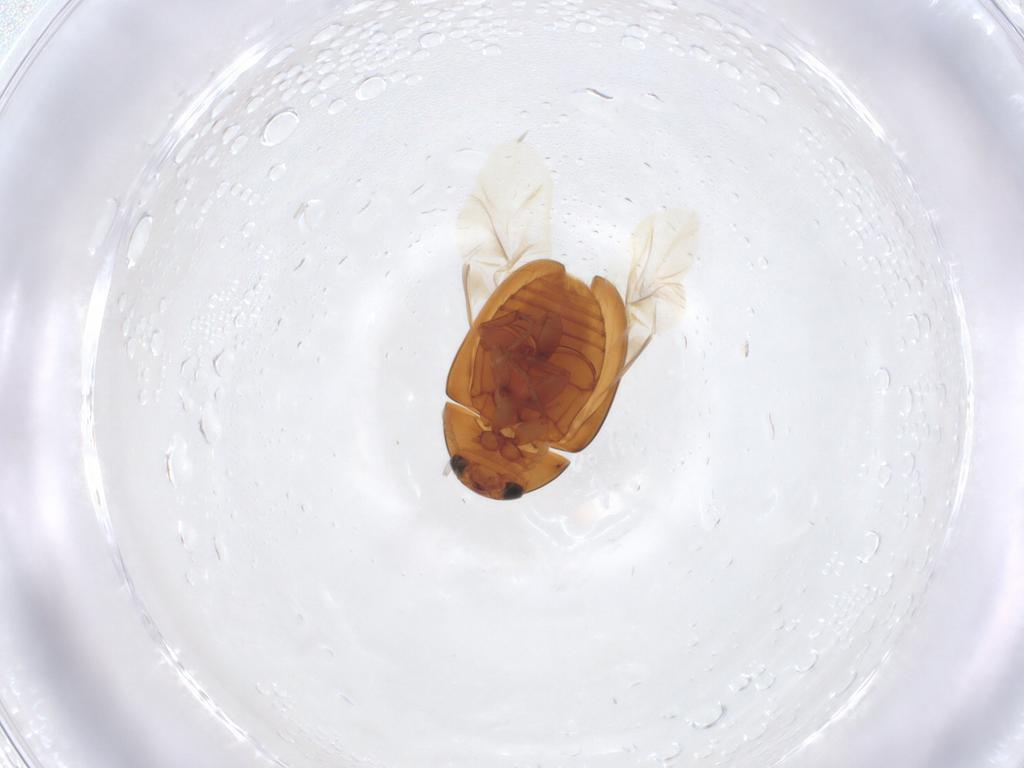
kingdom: Animalia
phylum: Arthropoda
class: Insecta
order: Coleoptera
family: Phalacridae
